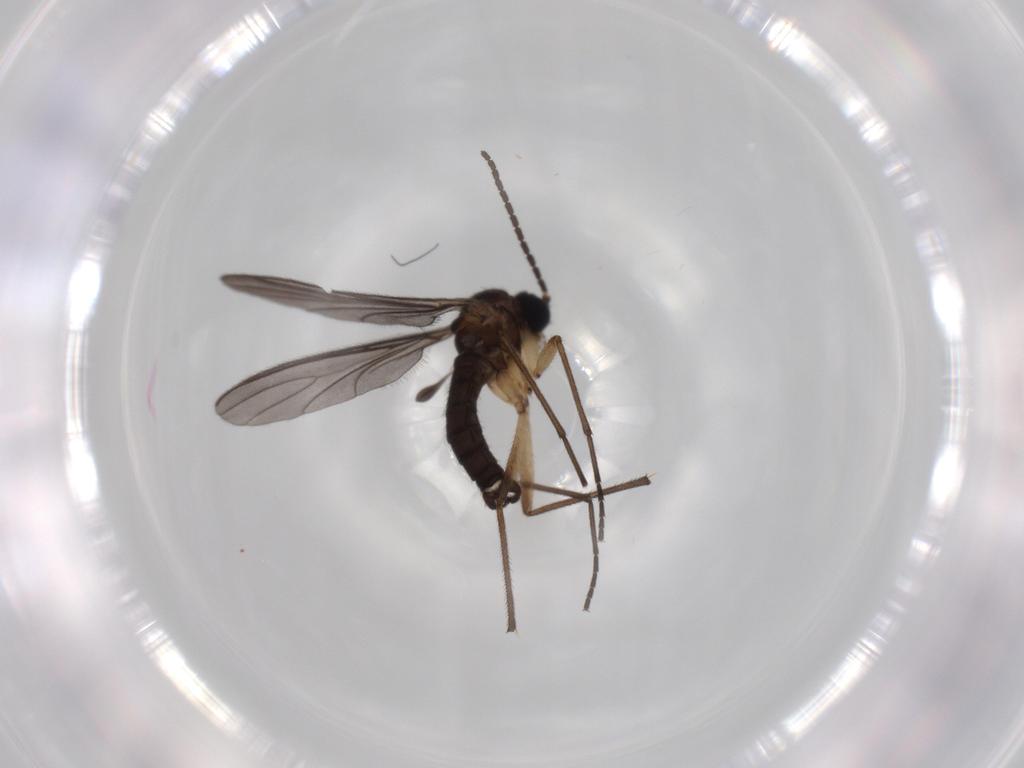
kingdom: Animalia
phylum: Arthropoda
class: Insecta
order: Diptera
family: Sciaridae
